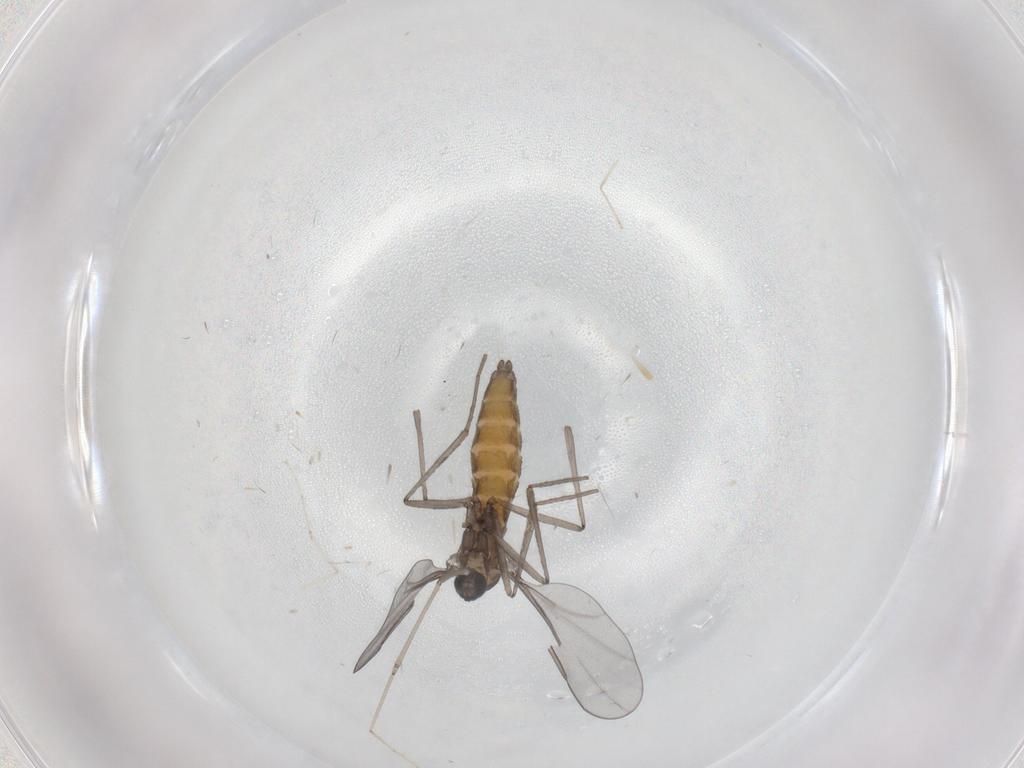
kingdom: Animalia
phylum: Arthropoda
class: Insecta
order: Diptera
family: Cecidomyiidae
